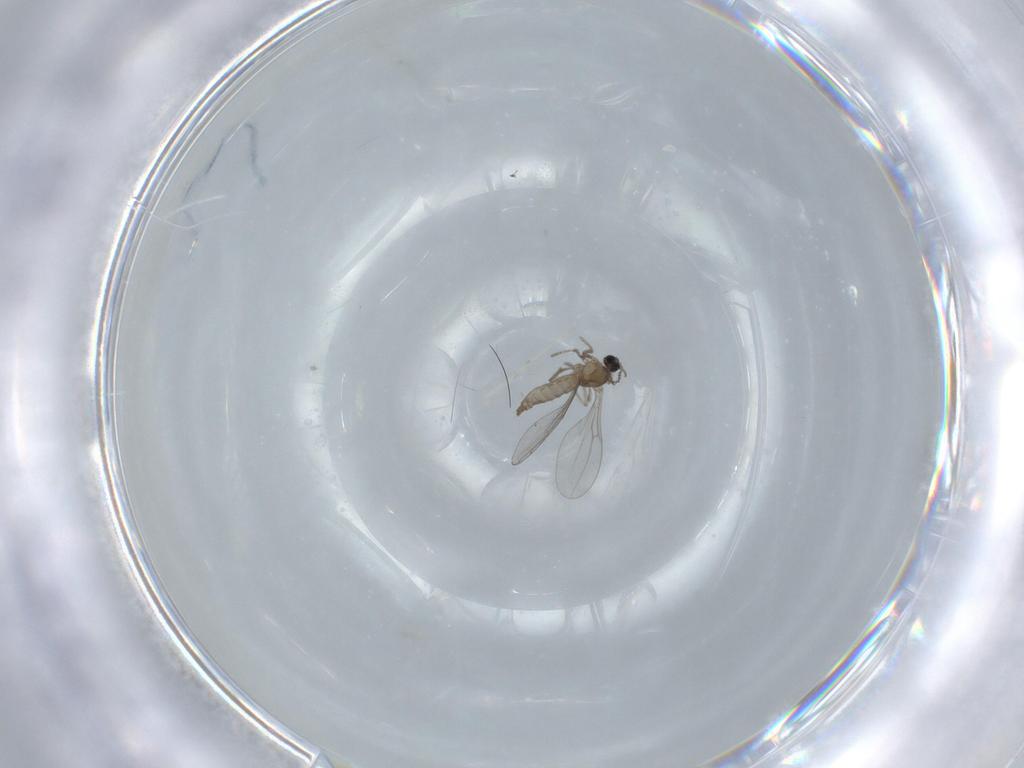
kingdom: Animalia
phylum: Arthropoda
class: Insecta
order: Diptera
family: Cecidomyiidae
